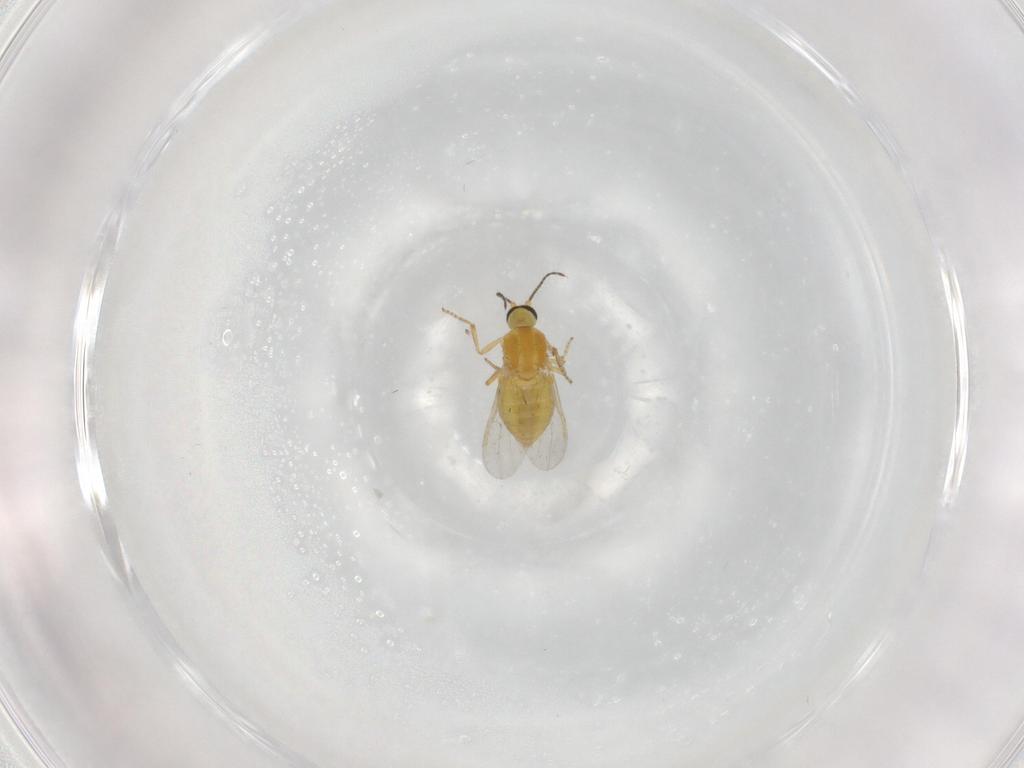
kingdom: Animalia
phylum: Arthropoda
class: Insecta
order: Diptera
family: Ceratopogonidae
